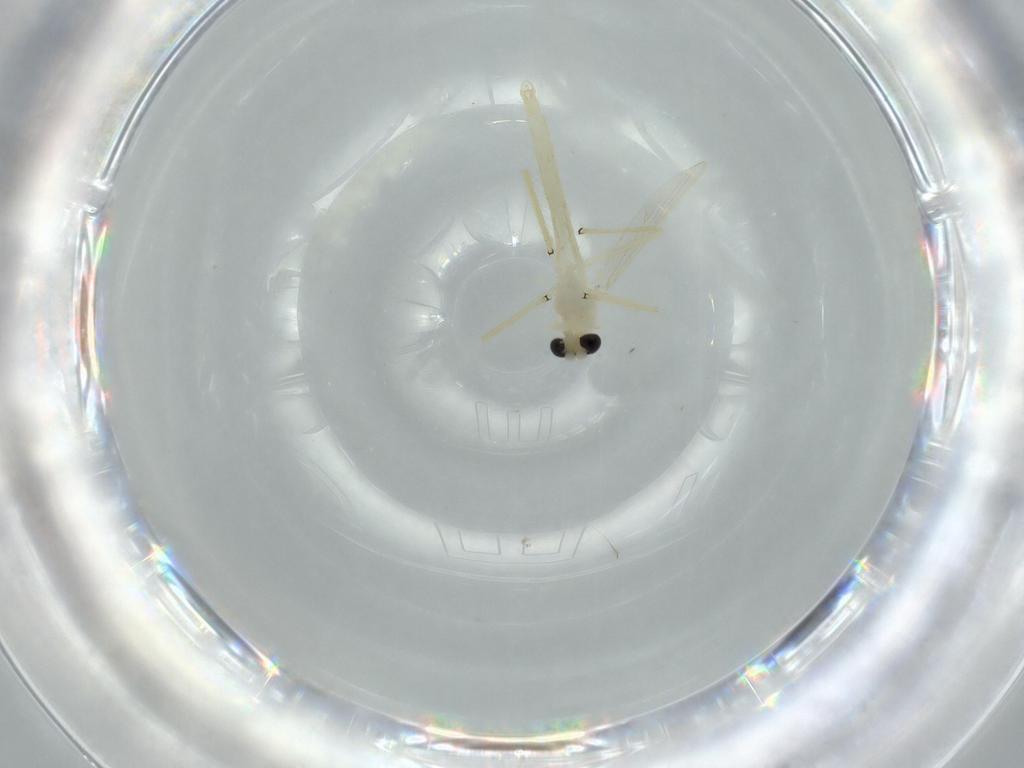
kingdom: Animalia
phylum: Arthropoda
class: Insecta
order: Diptera
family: Chironomidae
